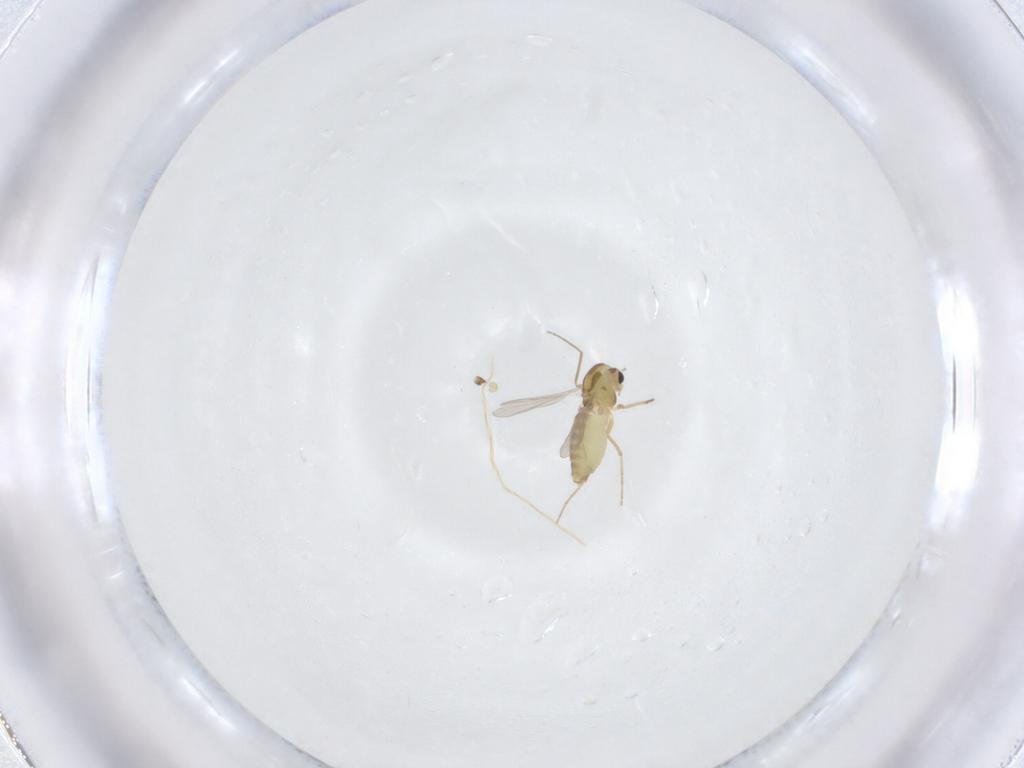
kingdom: Animalia
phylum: Arthropoda
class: Insecta
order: Diptera
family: Chironomidae
